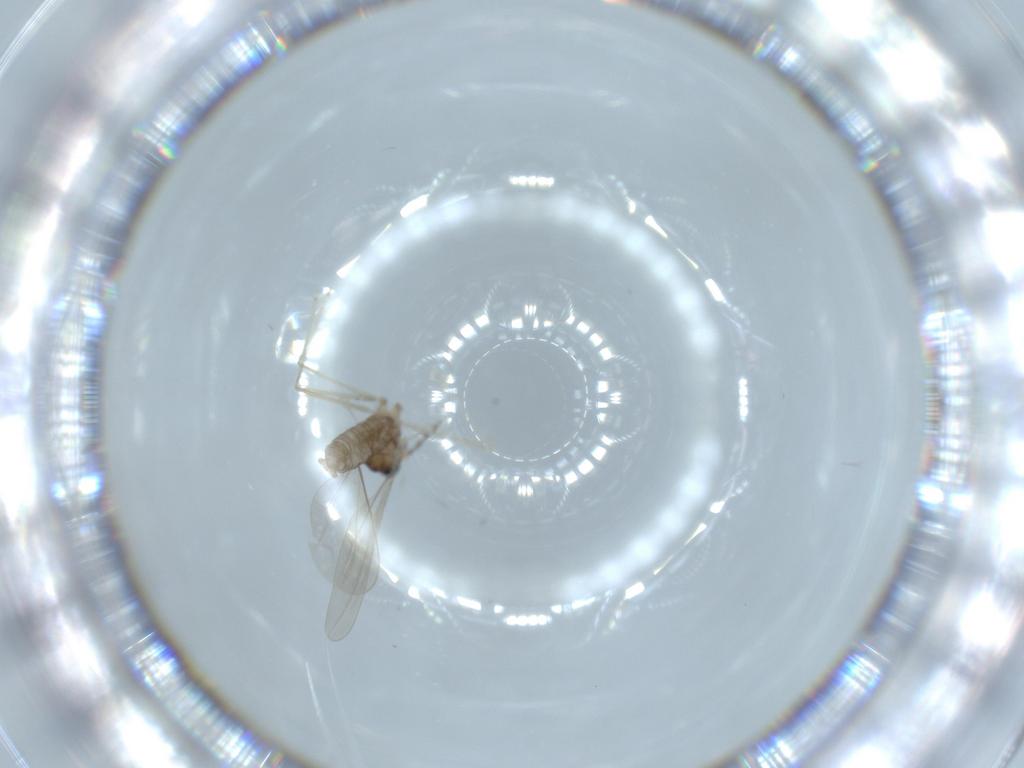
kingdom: Animalia
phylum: Arthropoda
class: Insecta
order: Diptera
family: Cecidomyiidae
